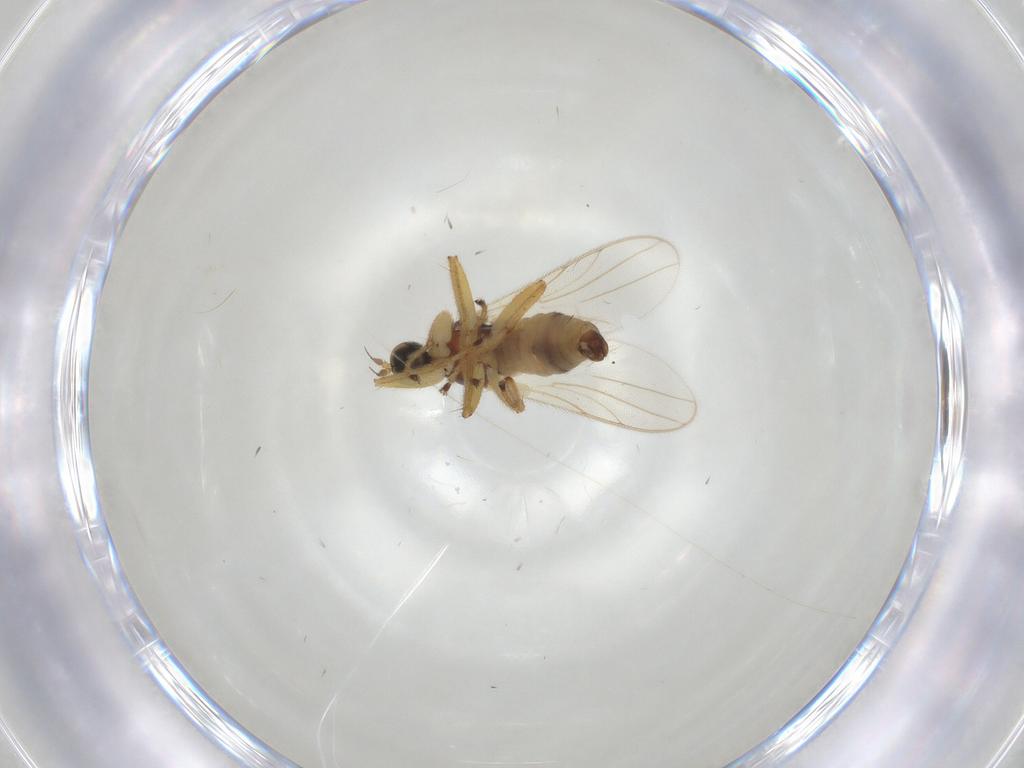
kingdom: Animalia
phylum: Arthropoda
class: Insecta
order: Diptera
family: Hybotidae
